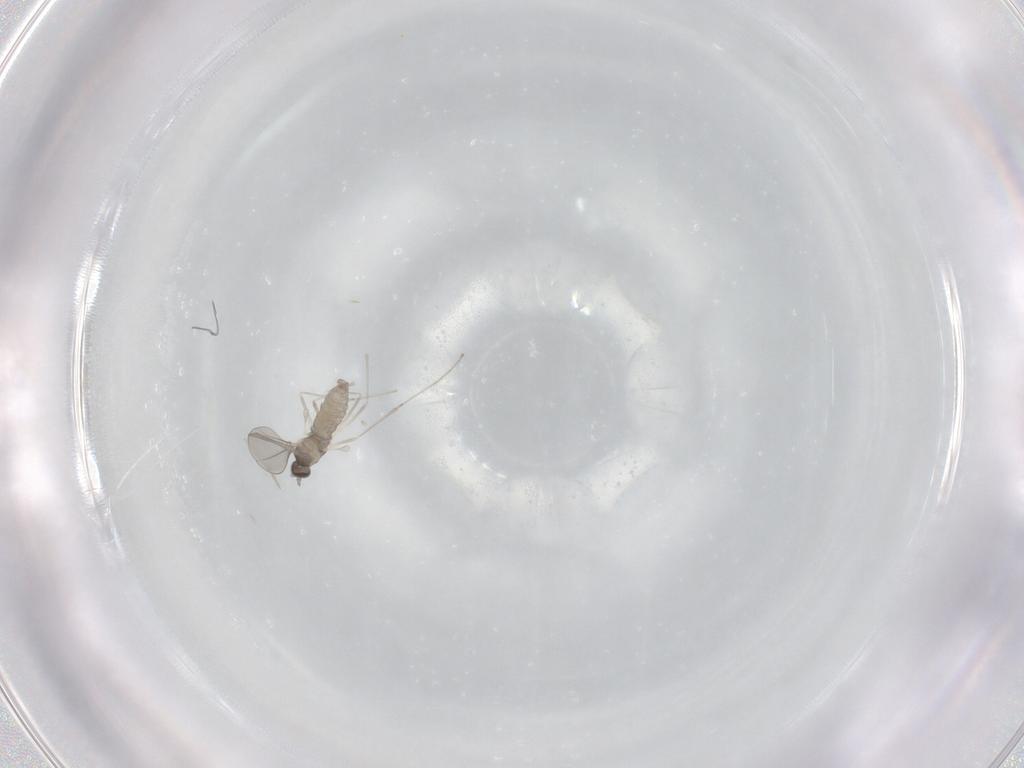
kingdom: Animalia
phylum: Arthropoda
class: Insecta
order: Diptera
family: Cecidomyiidae
